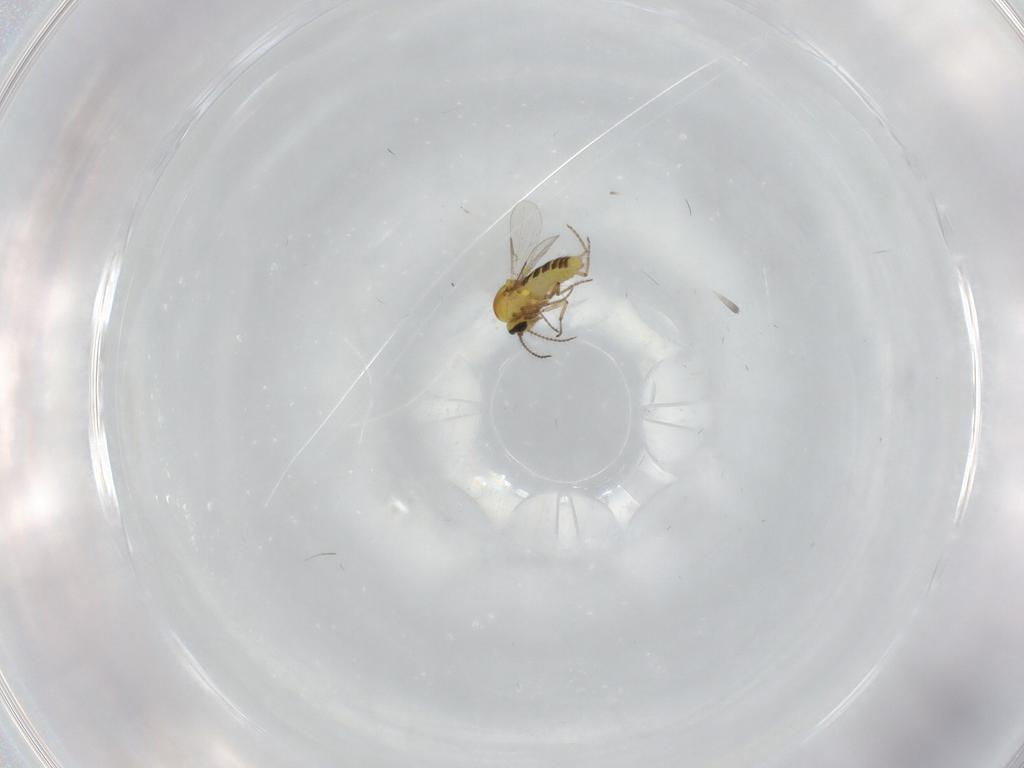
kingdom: Animalia
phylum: Arthropoda
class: Insecta
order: Diptera
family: Ceratopogonidae
